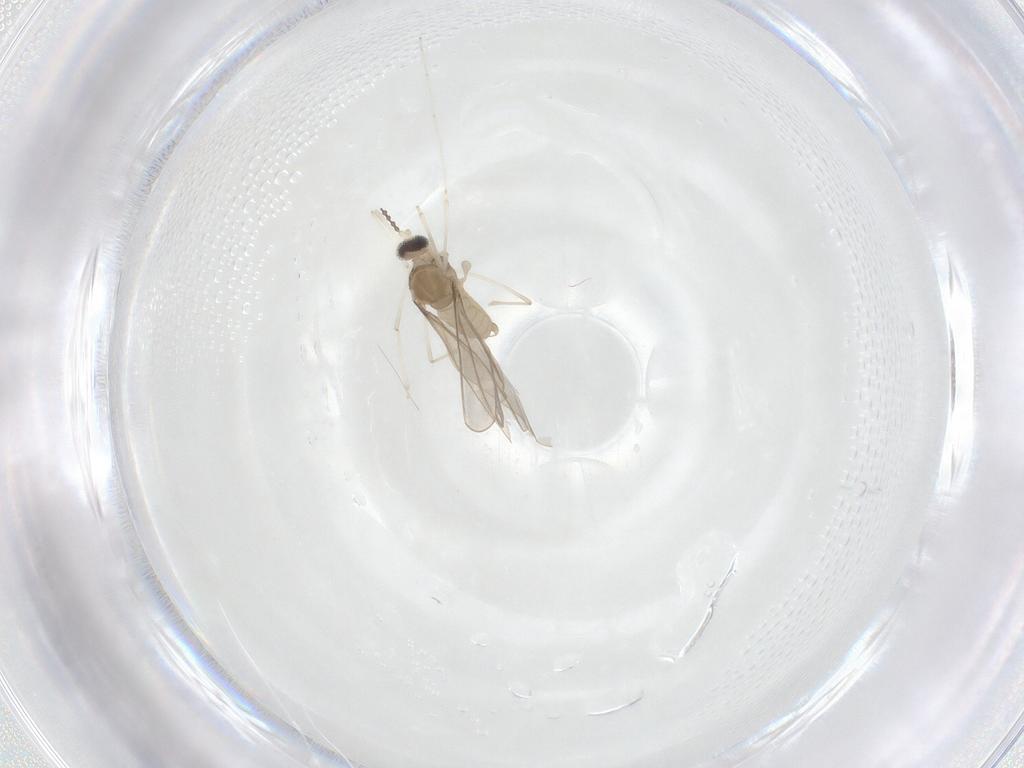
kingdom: Animalia
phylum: Arthropoda
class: Insecta
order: Diptera
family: Cecidomyiidae
